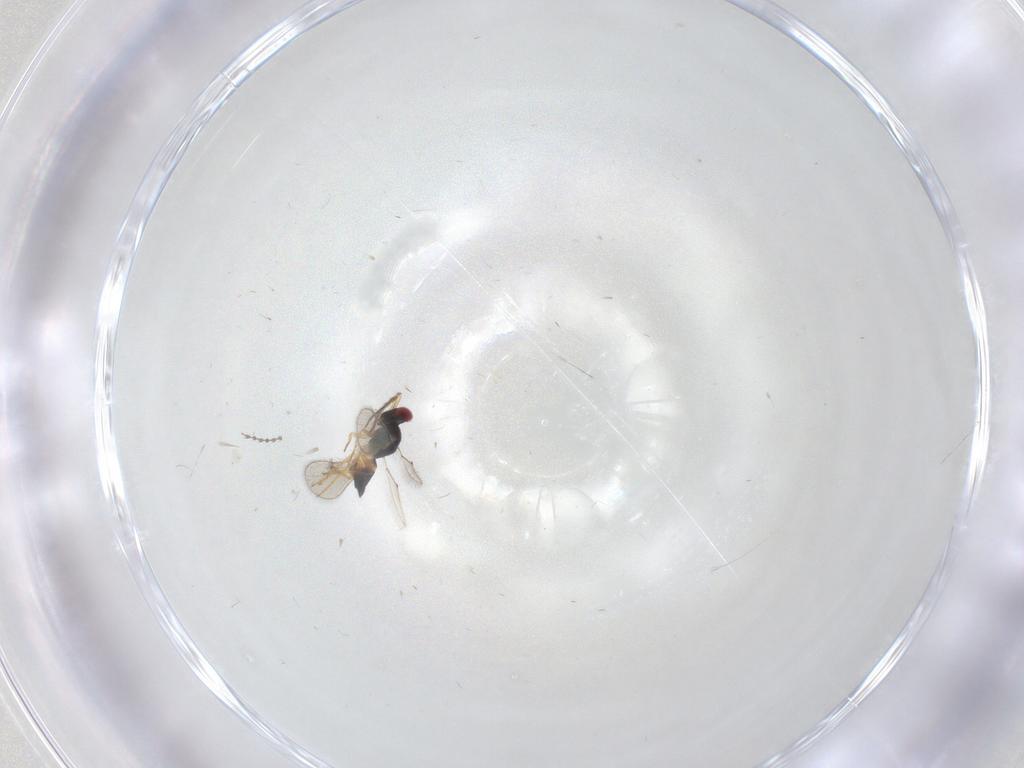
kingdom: Animalia
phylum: Arthropoda
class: Insecta
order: Hymenoptera
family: Eulophidae
